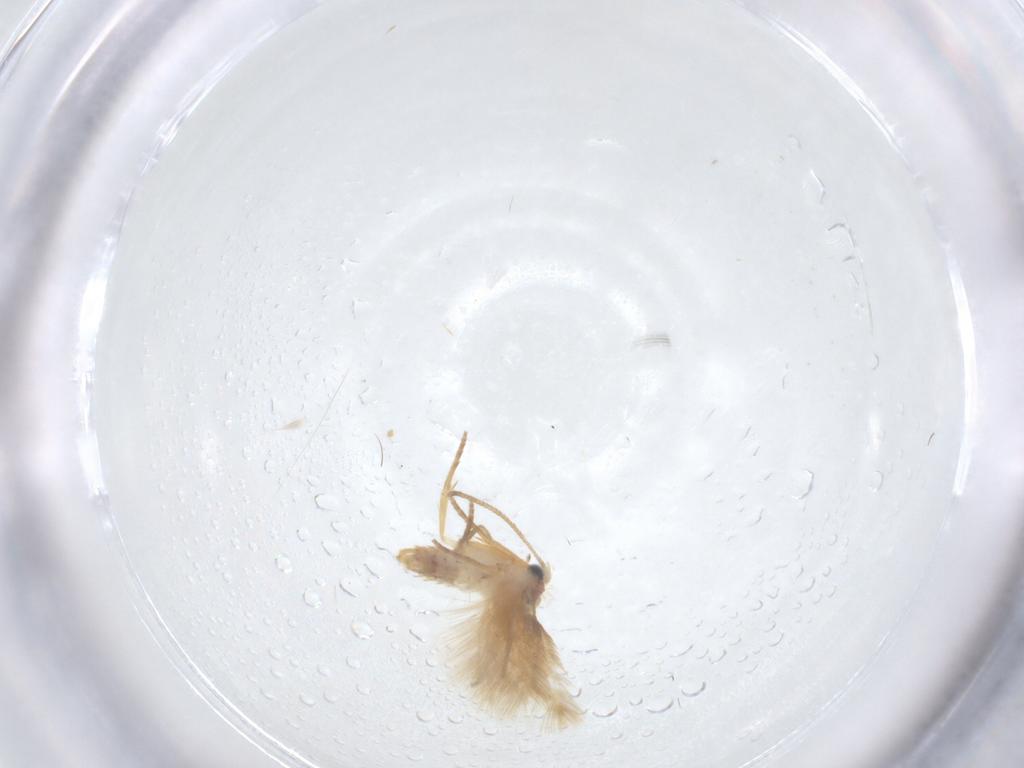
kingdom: Animalia
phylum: Arthropoda
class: Insecta
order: Lepidoptera
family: Nepticulidae
